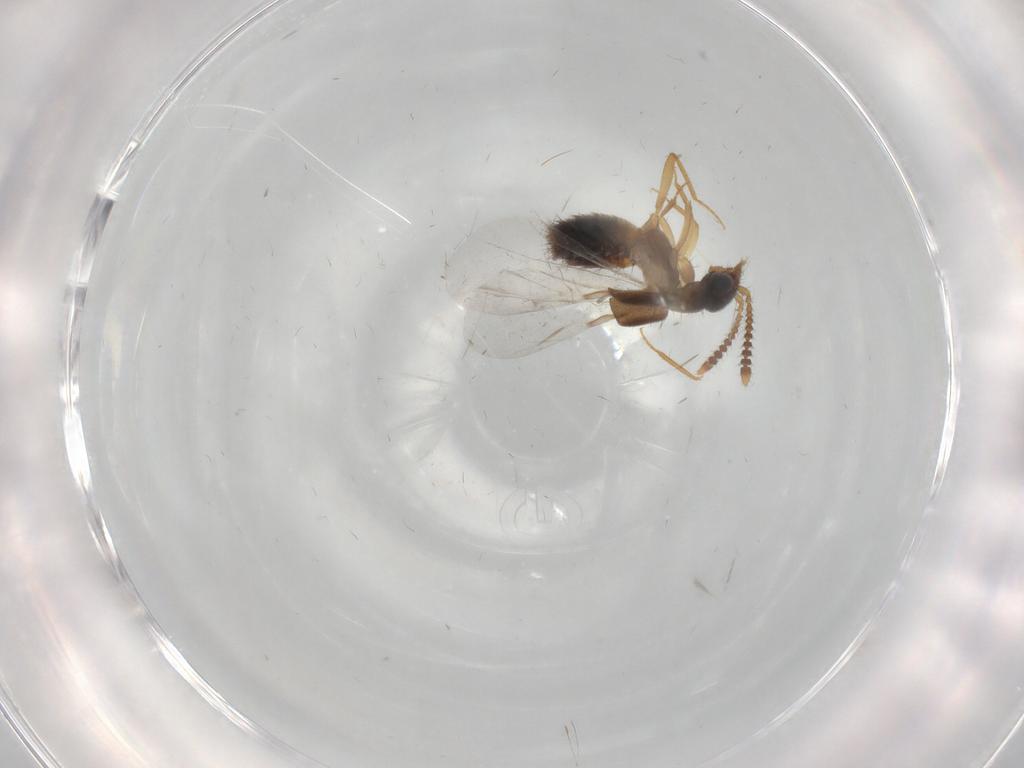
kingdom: Animalia
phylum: Arthropoda
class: Insecta
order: Coleoptera
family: Staphylinidae
